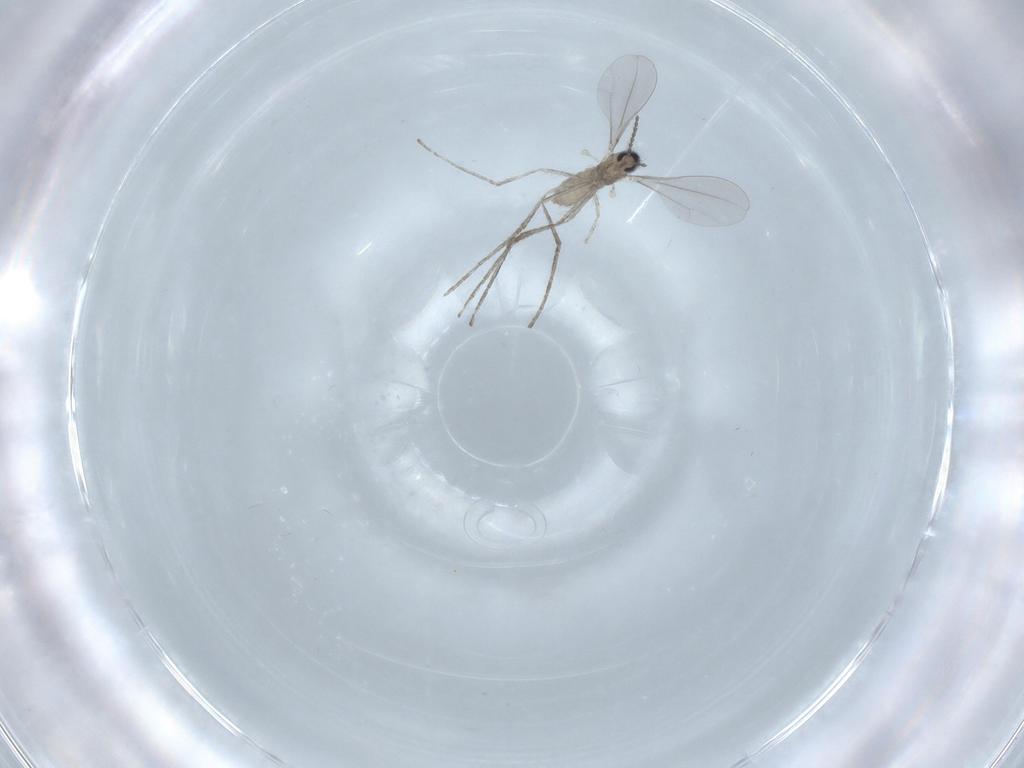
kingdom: Animalia
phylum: Arthropoda
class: Insecta
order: Diptera
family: Cecidomyiidae
